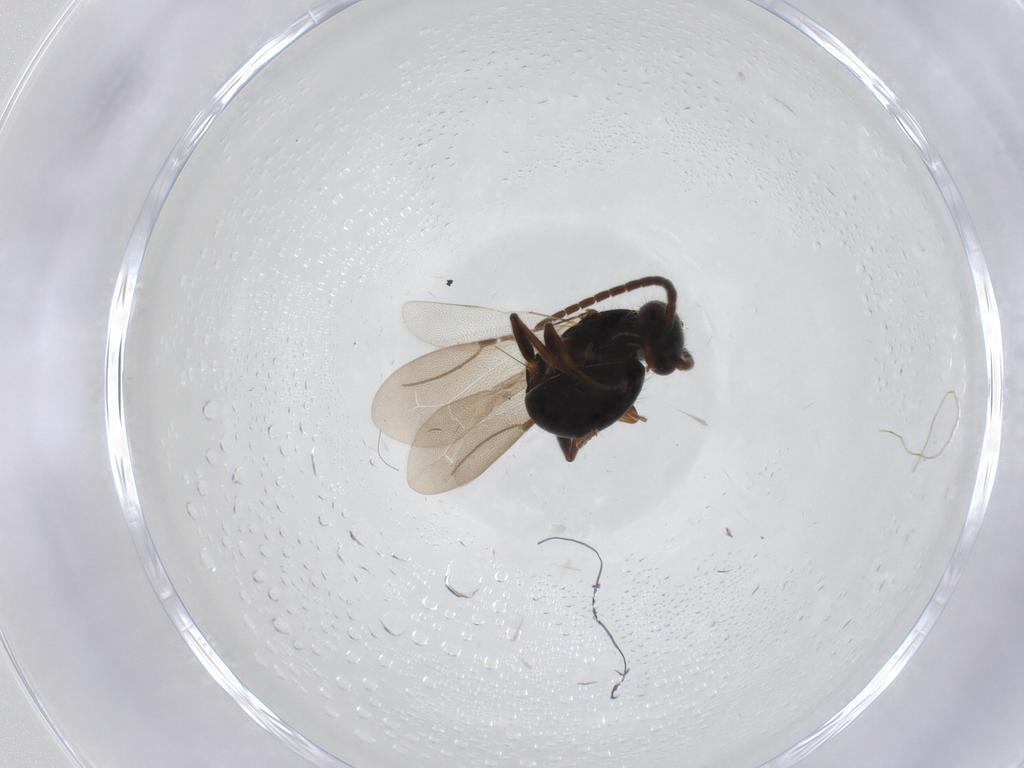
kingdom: Animalia
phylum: Arthropoda
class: Insecta
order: Hymenoptera
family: Bethylidae
